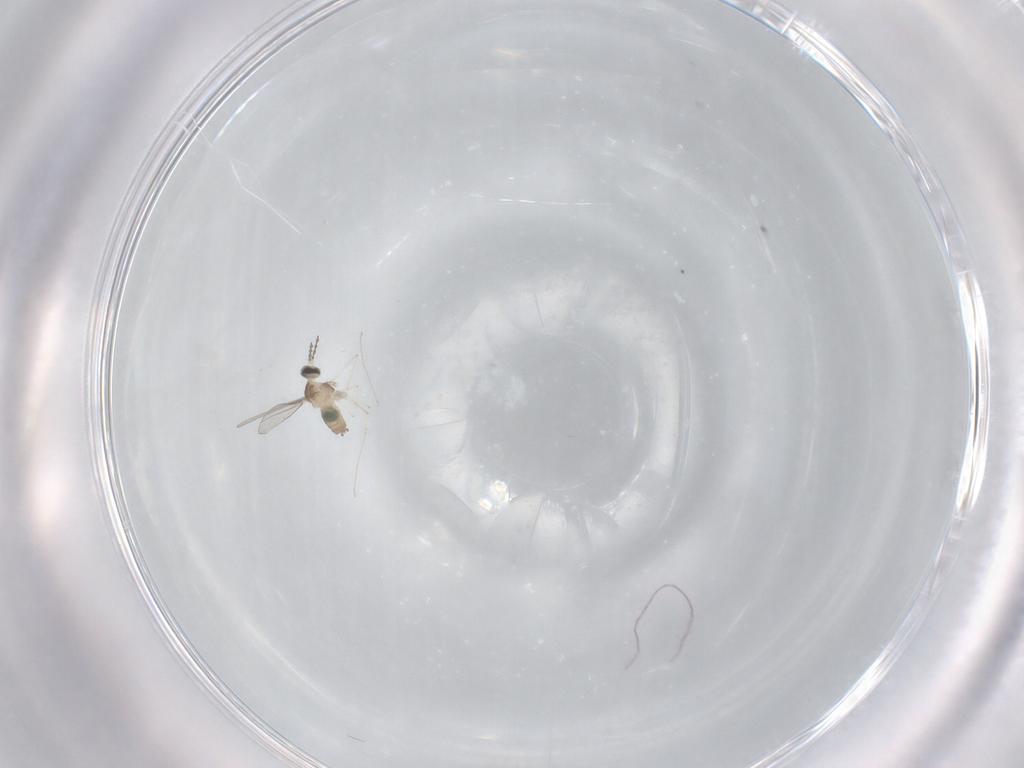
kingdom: Animalia
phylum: Arthropoda
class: Insecta
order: Diptera
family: Cecidomyiidae
